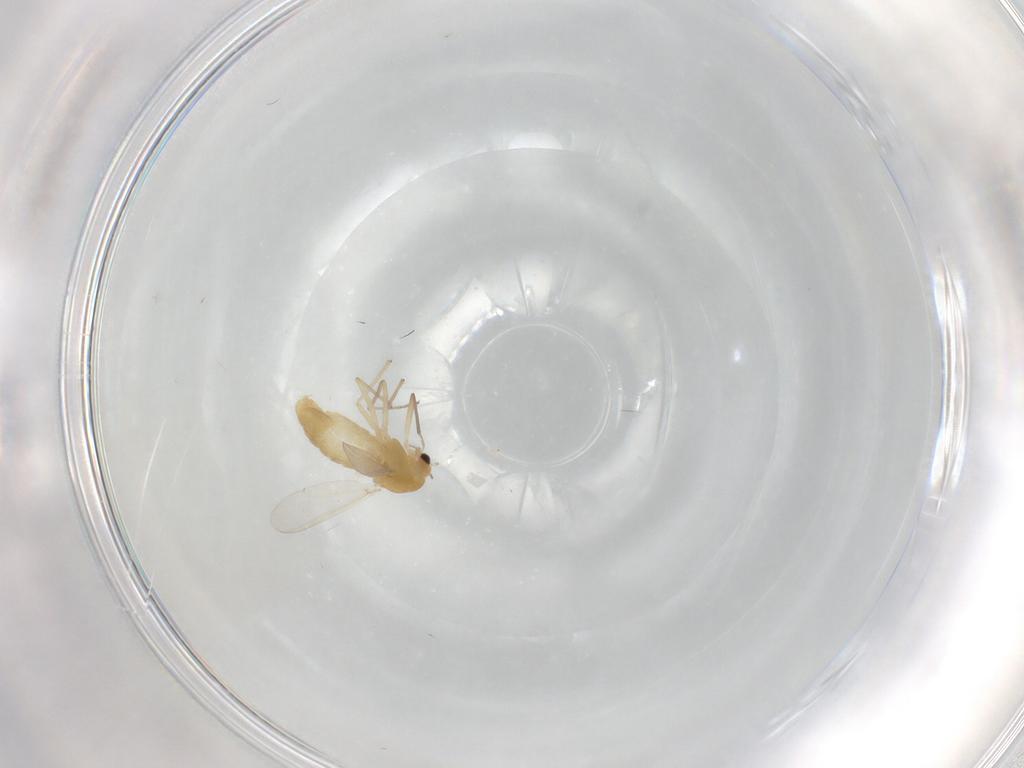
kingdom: Animalia
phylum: Arthropoda
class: Insecta
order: Diptera
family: Chironomidae
